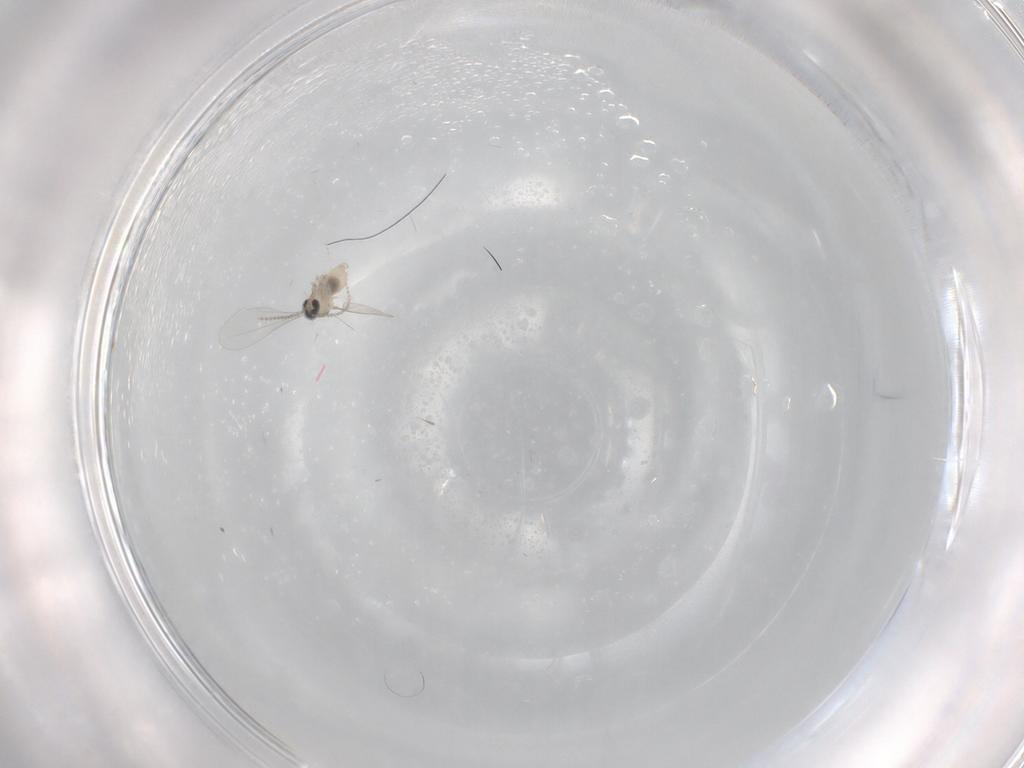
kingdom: Animalia
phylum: Arthropoda
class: Insecta
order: Diptera
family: Cecidomyiidae
